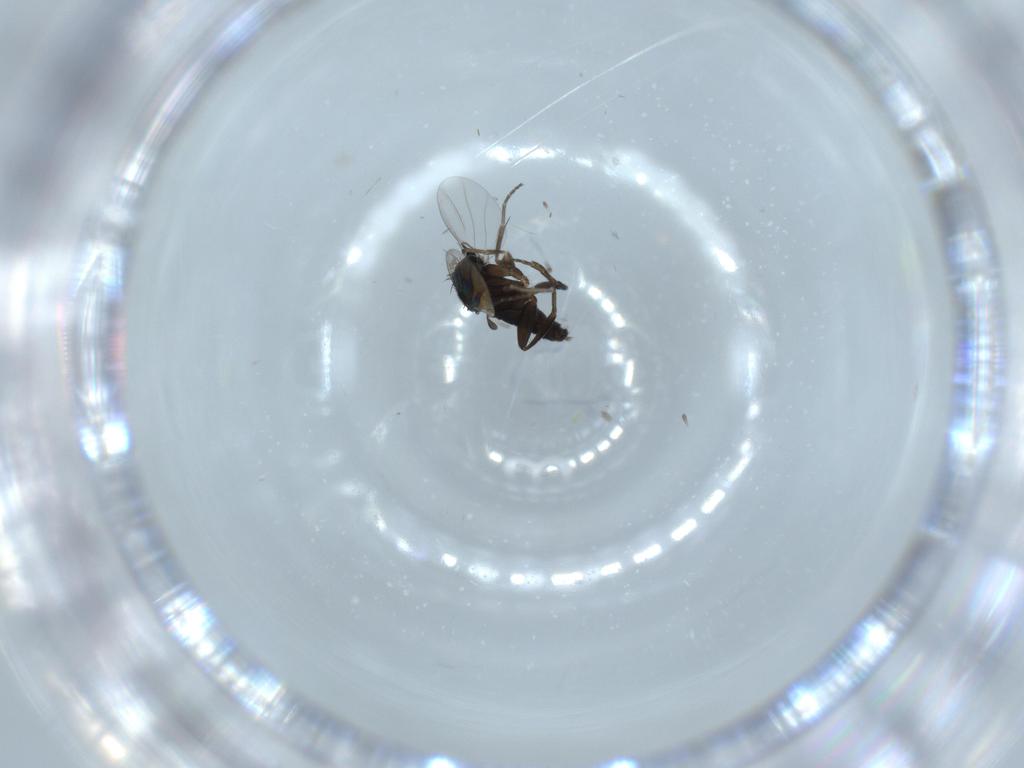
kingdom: Animalia
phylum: Arthropoda
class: Insecta
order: Diptera
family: Phoridae
